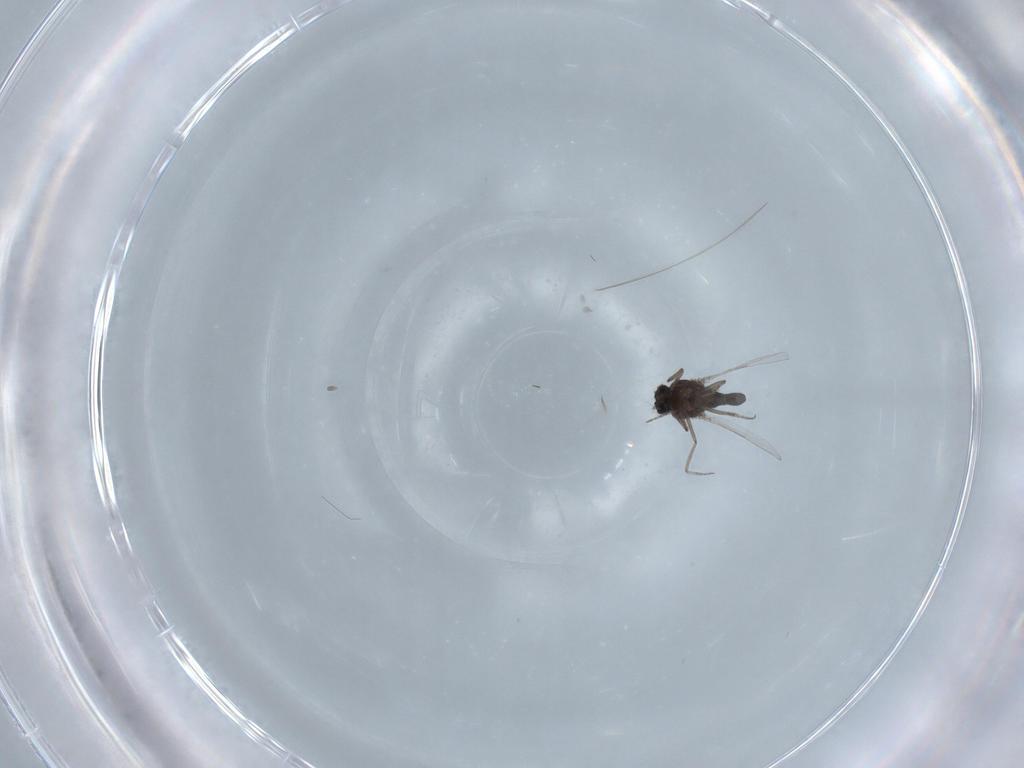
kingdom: Animalia
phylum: Arthropoda
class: Insecta
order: Diptera
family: Ceratopogonidae
